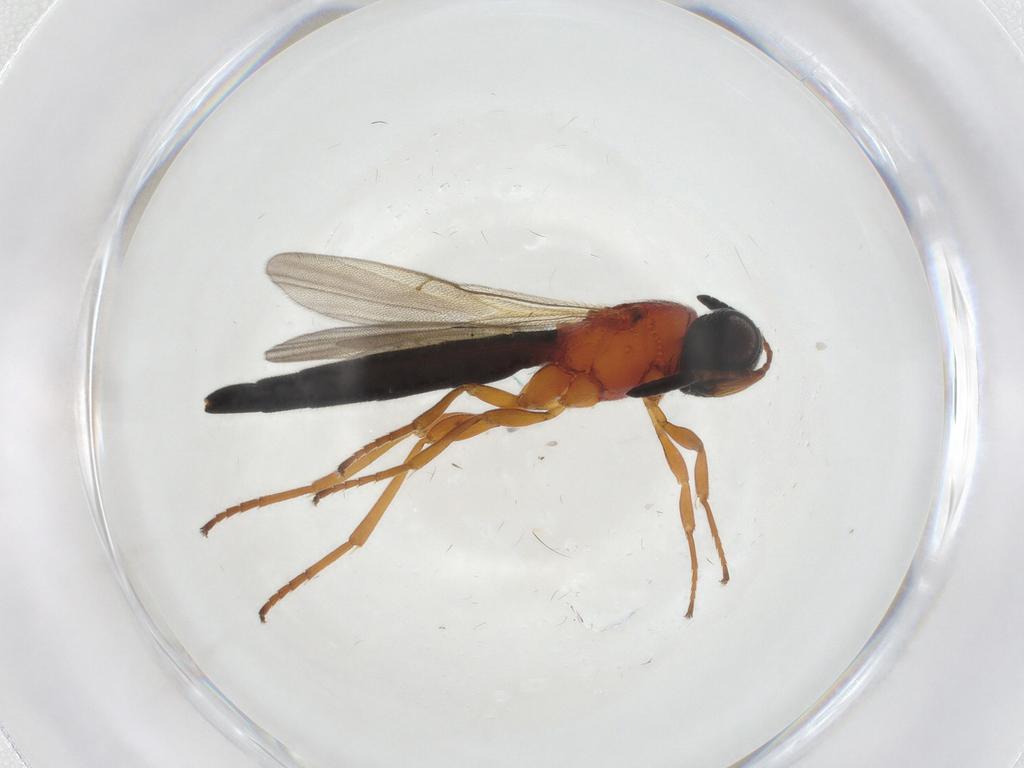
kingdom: Animalia
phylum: Arthropoda
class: Insecta
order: Hymenoptera
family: Scelionidae
